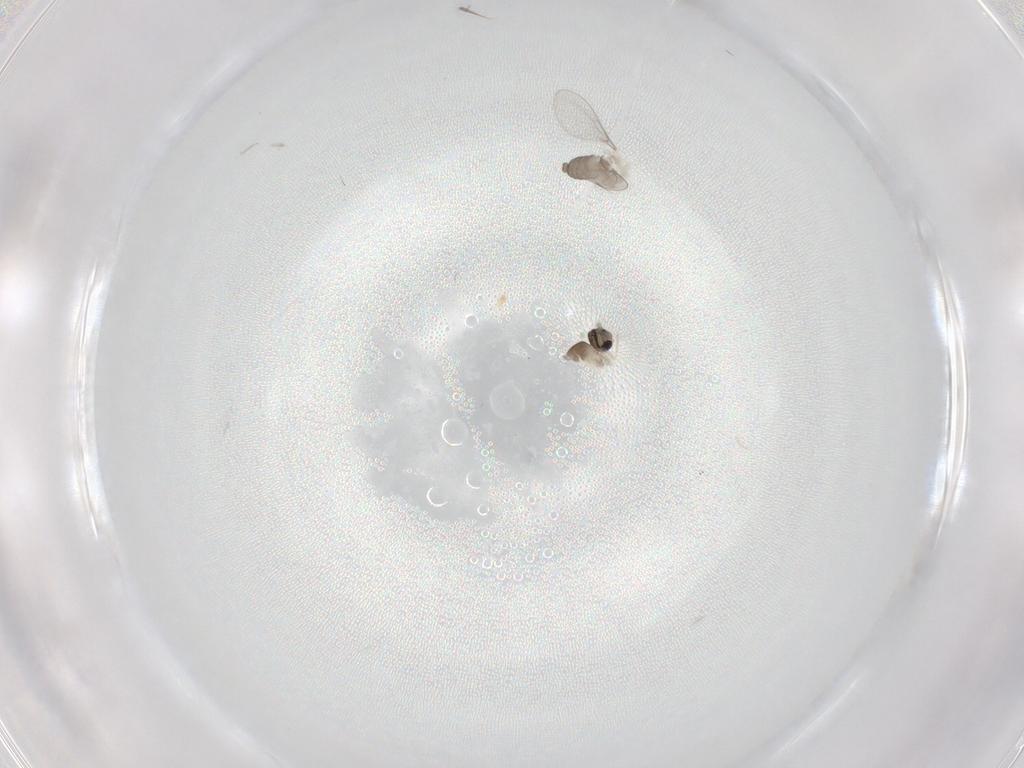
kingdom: Animalia
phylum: Arthropoda
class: Insecta
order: Diptera
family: Cecidomyiidae
